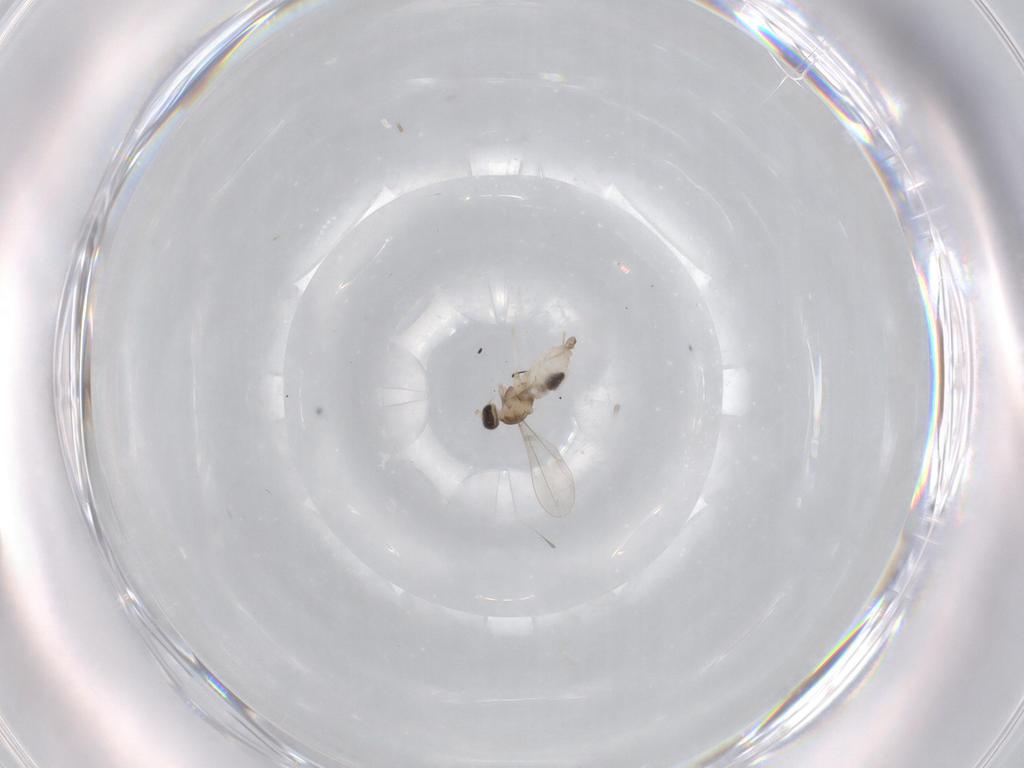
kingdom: Animalia
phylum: Arthropoda
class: Insecta
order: Diptera
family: Cecidomyiidae
